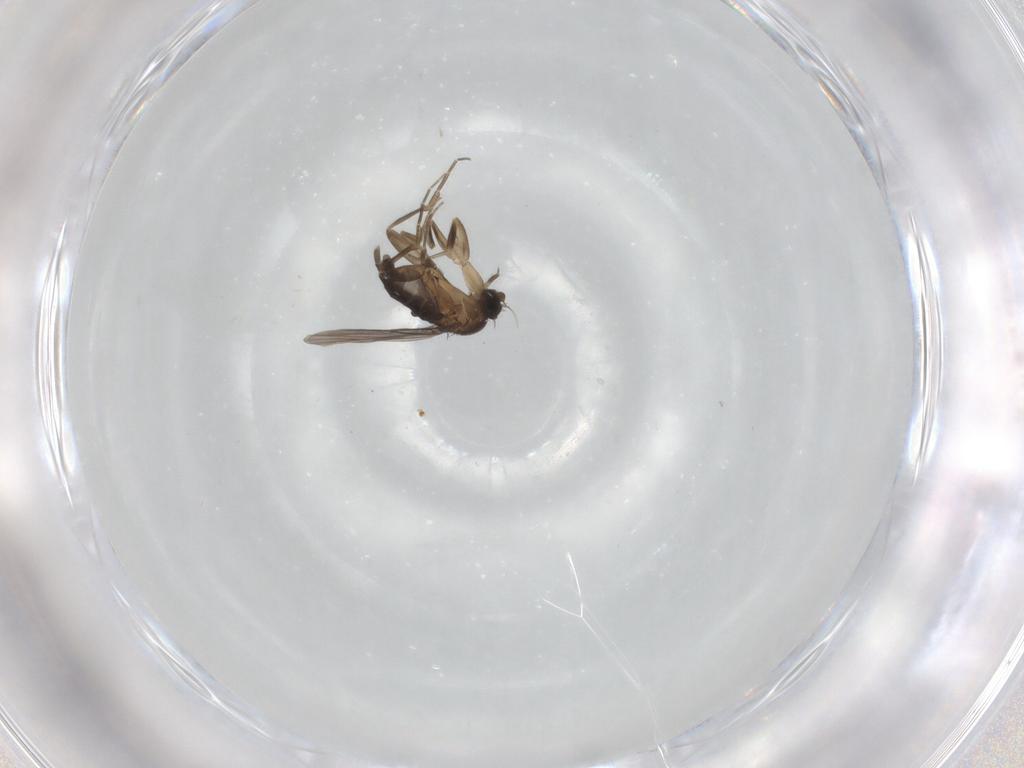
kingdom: Animalia
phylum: Arthropoda
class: Insecta
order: Diptera
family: Phoridae
